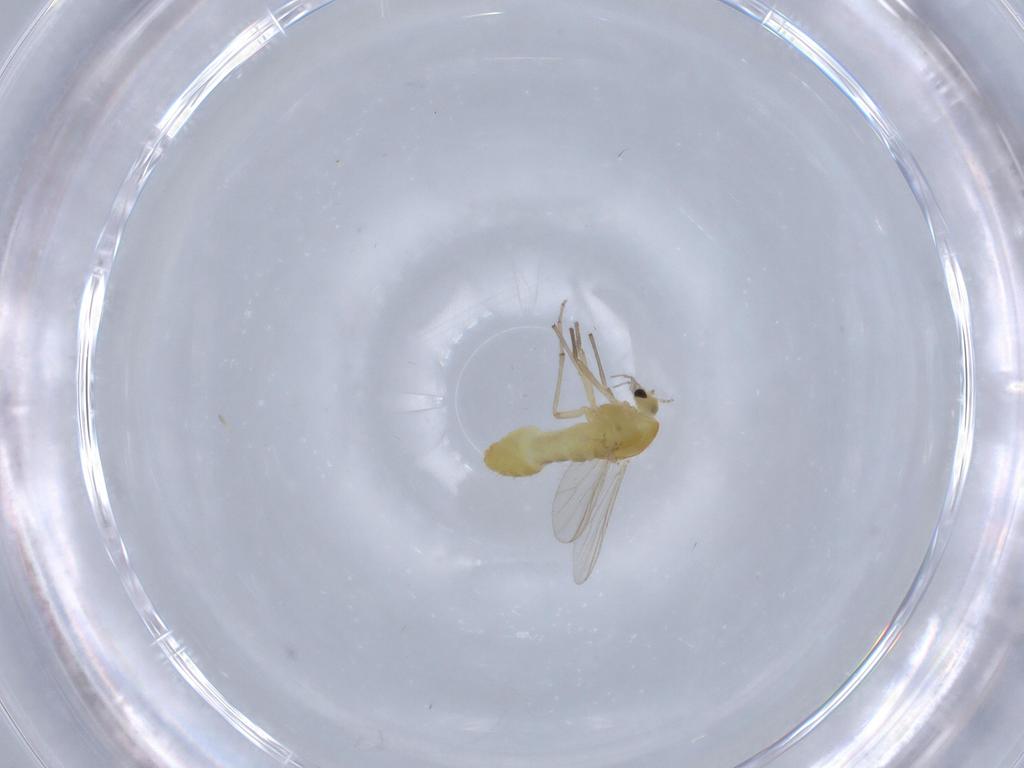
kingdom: Animalia
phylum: Arthropoda
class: Insecta
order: Diptera
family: Chironomidae
